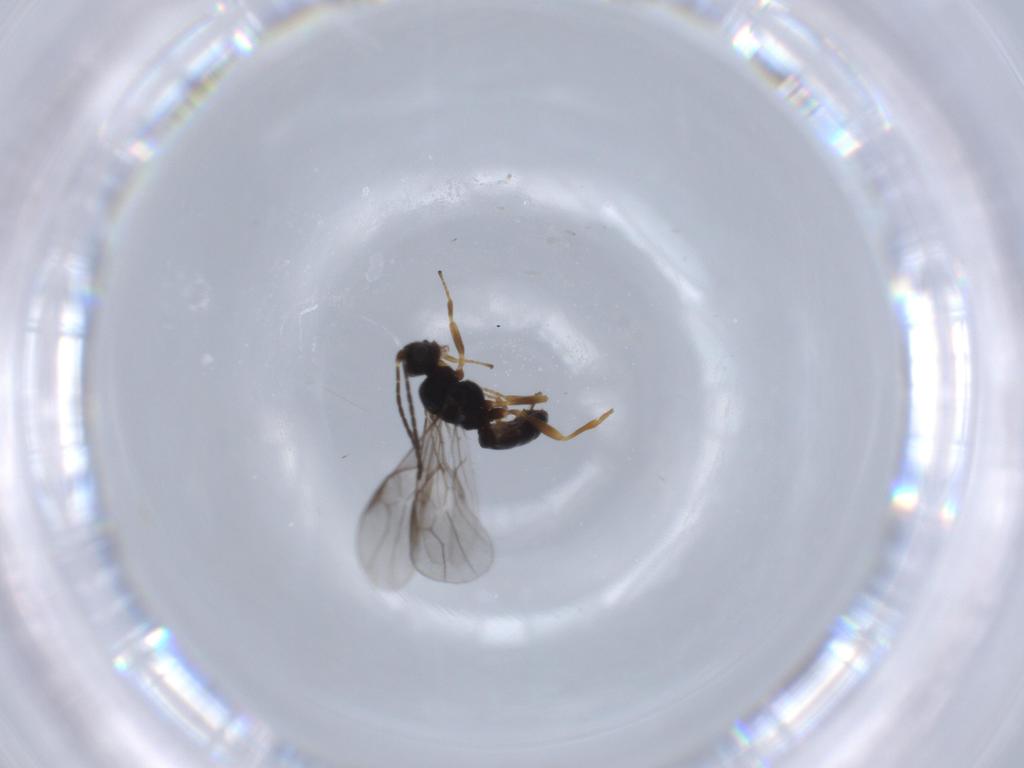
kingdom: Animalia
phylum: Arthropoda
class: Insecta
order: Hymenoptera
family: Braconidae
